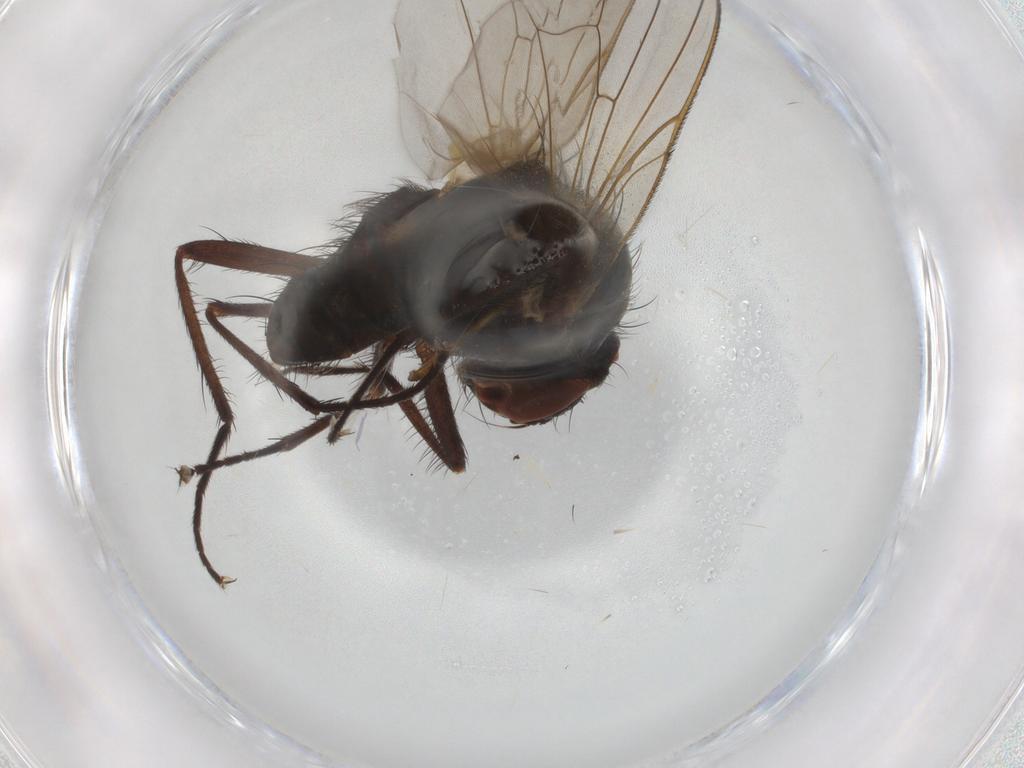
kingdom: Animalia
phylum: Arthropoda
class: Insecta
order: Diptera
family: Anthomyiidae
